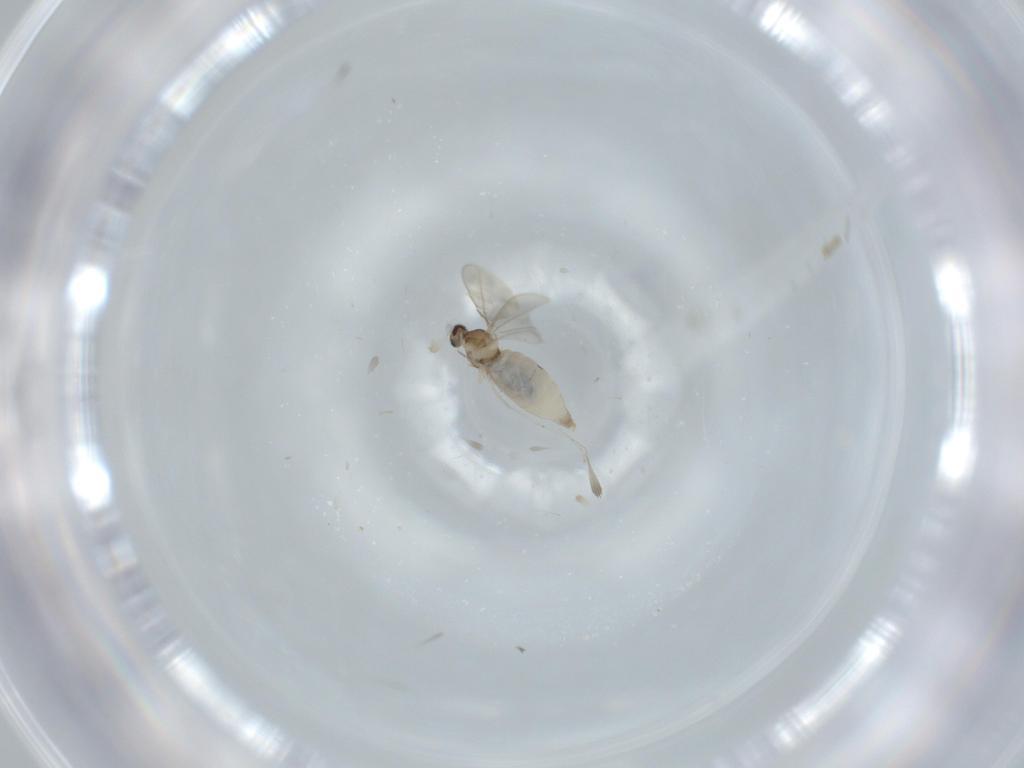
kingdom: Animalia
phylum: Arthropoda
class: Insecta
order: Diptera
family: Cecidomyiidae
